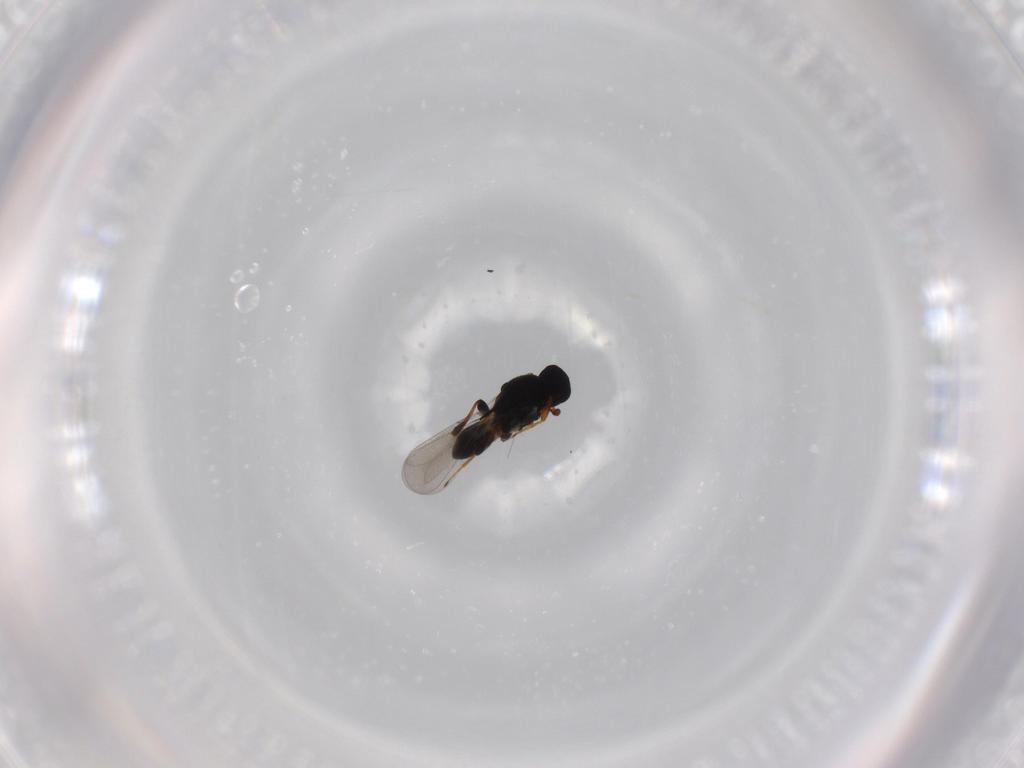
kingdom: Animalia
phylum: Arthropoda
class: Insecta
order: Hymenoptera
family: Platygastridae
